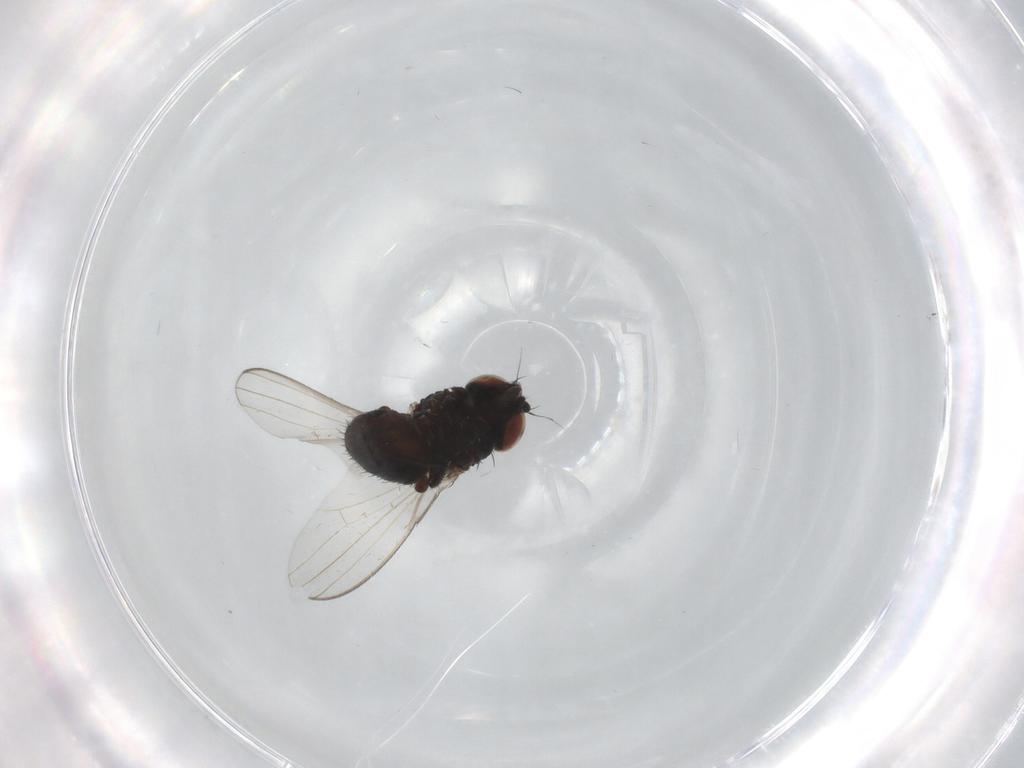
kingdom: Animalia
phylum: Arthropoda
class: Insecta
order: Diptera
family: Milichiidae
